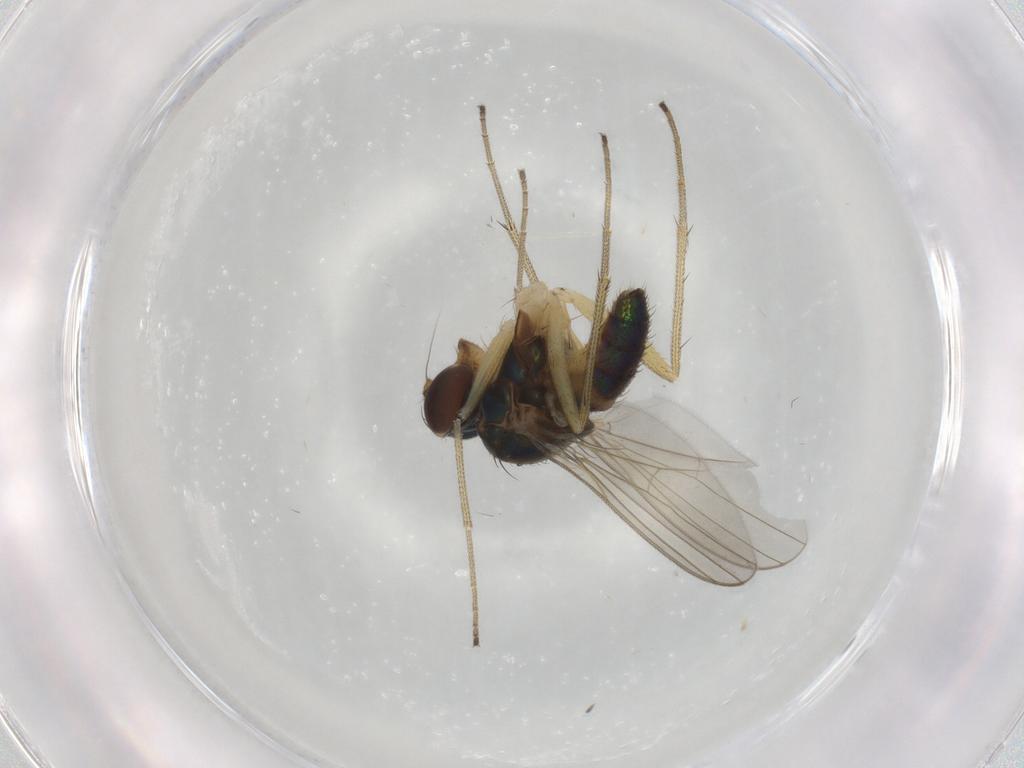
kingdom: Animalia
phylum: Arthropoda
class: Insecta
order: Diptera
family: Dolichopodidae
